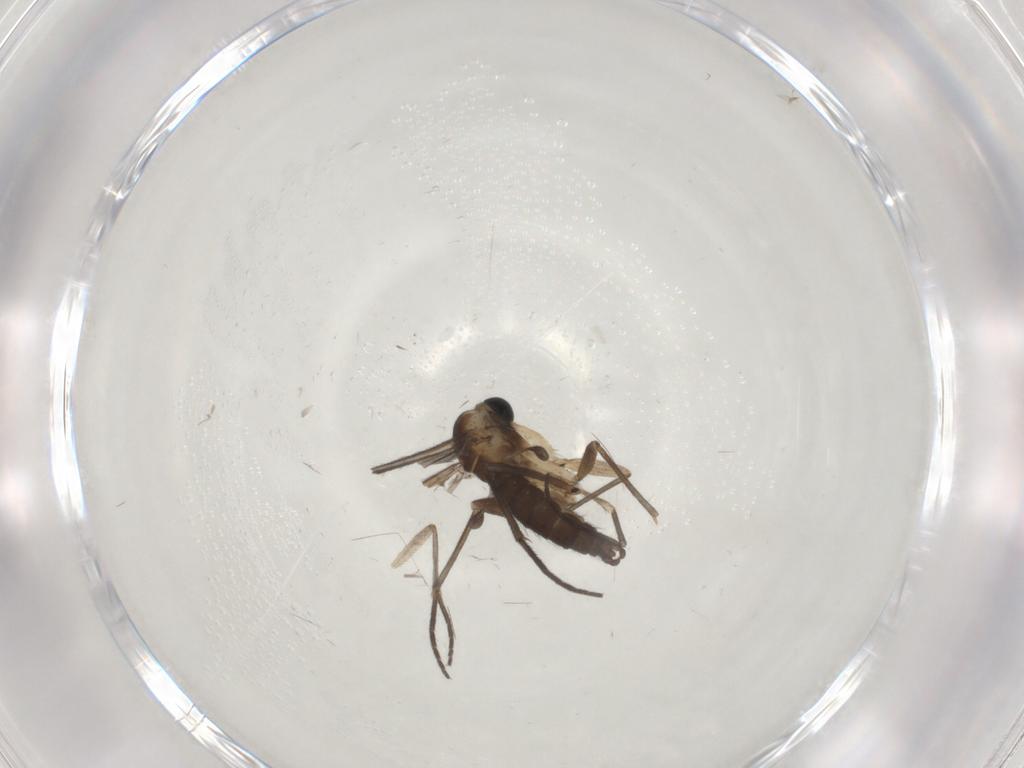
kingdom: Animalia
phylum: Arthropoda
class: Insecta
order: Diptera
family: Sciaridae
